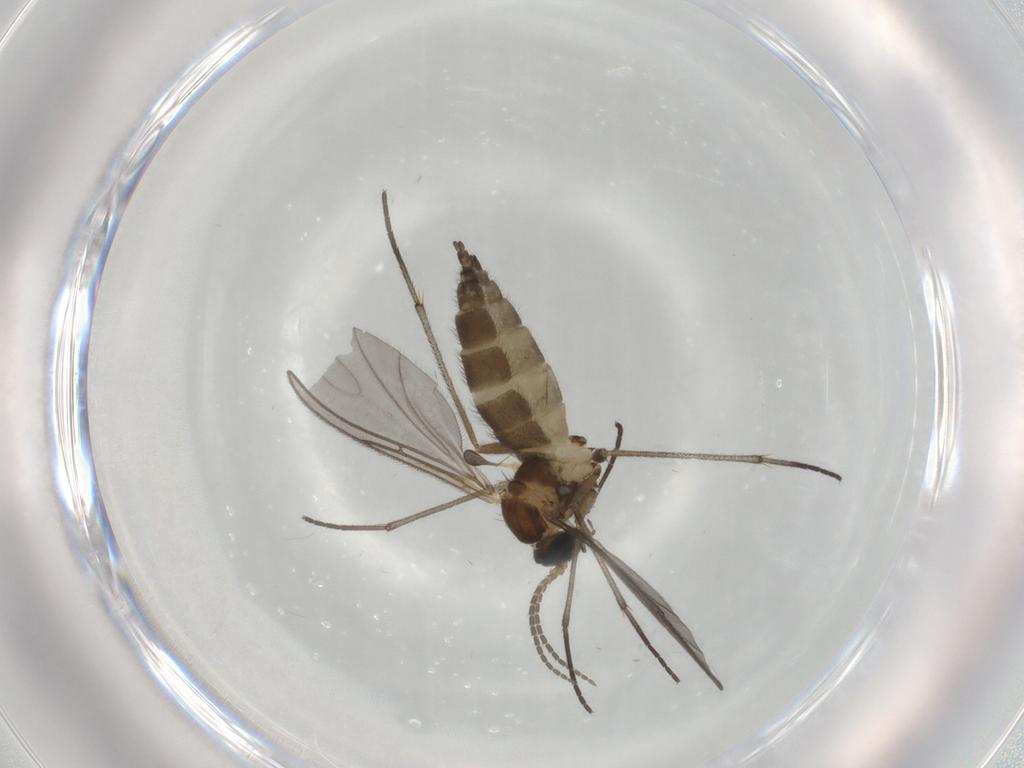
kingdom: Animalia
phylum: Arthropoda
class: Insecta
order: Diptera
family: Sciaridae
